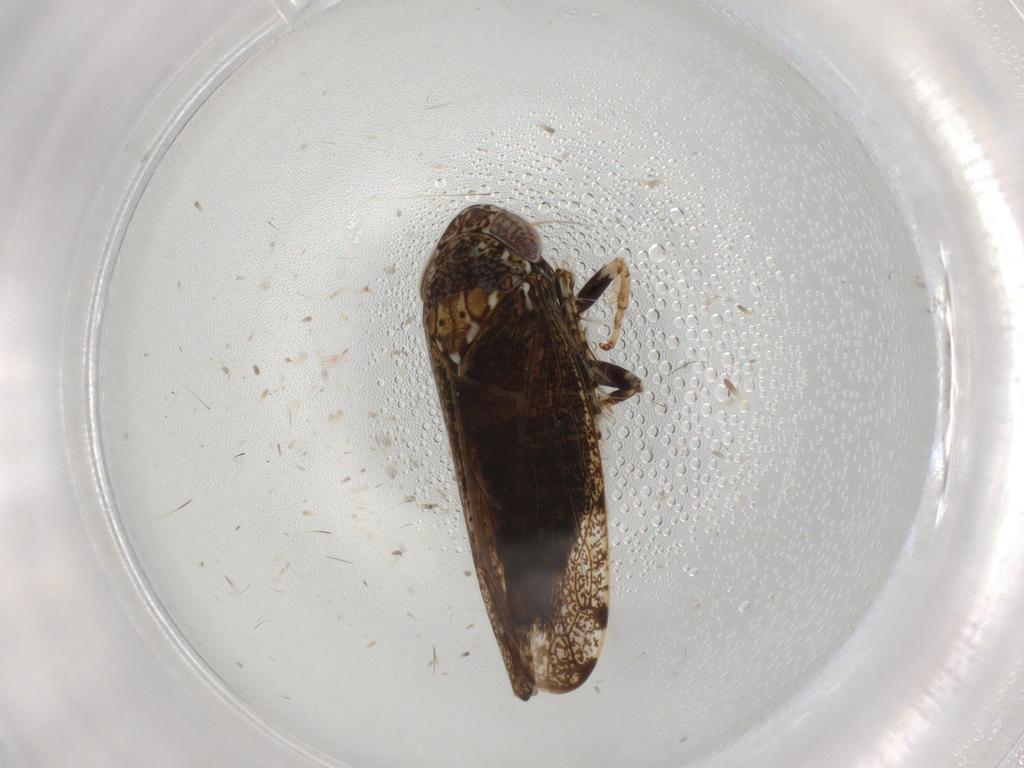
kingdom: Animalia
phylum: Arthropoda
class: Insecta
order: Hemiptera
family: Cicadellidae
